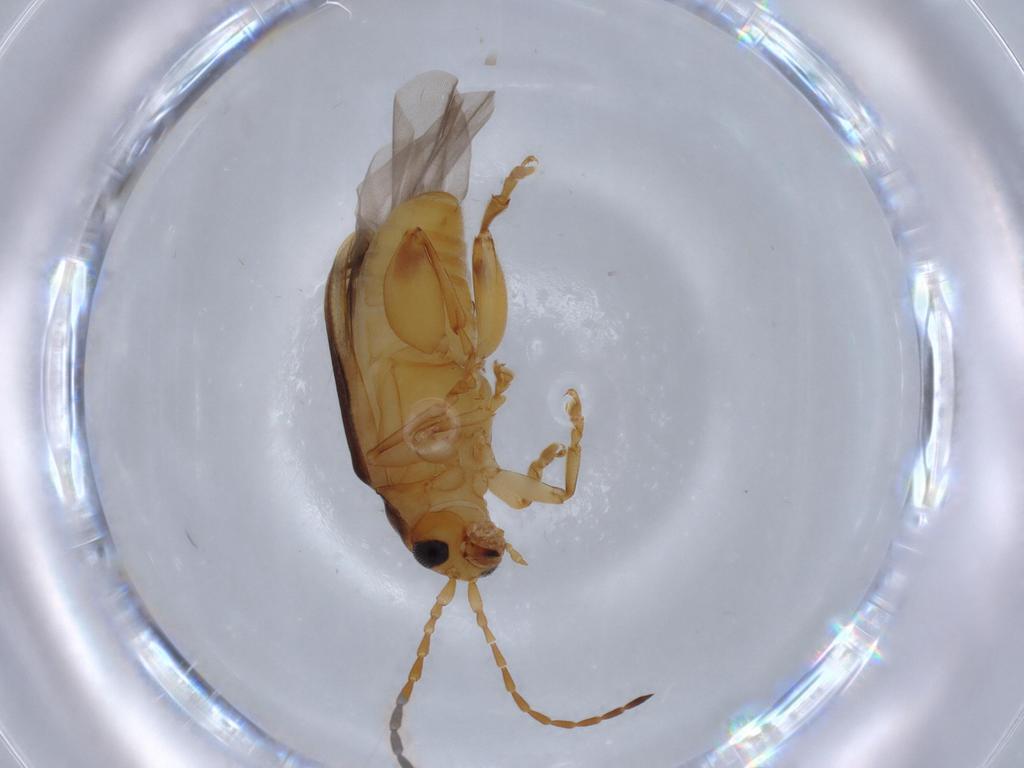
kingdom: Animalia
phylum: Arthropoda
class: Insecta
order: Coleoptera
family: Chrysomelidae
